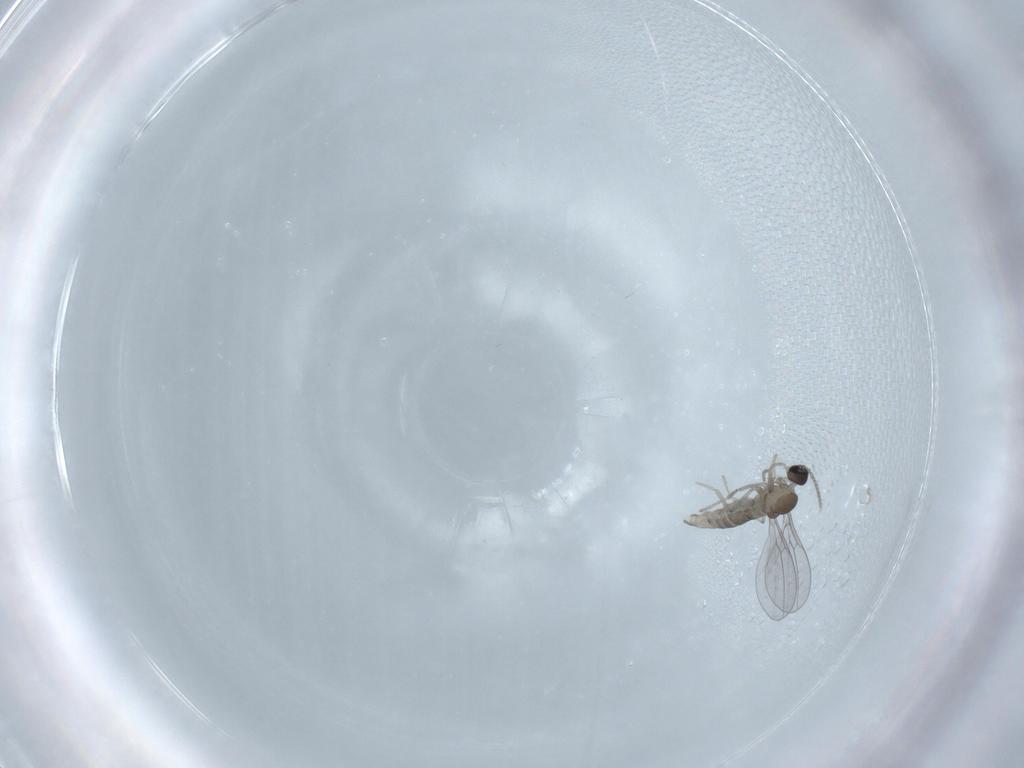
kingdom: Animalia
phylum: Arthropoda
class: Insecta
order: Diptera
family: Cecidomyiidae
